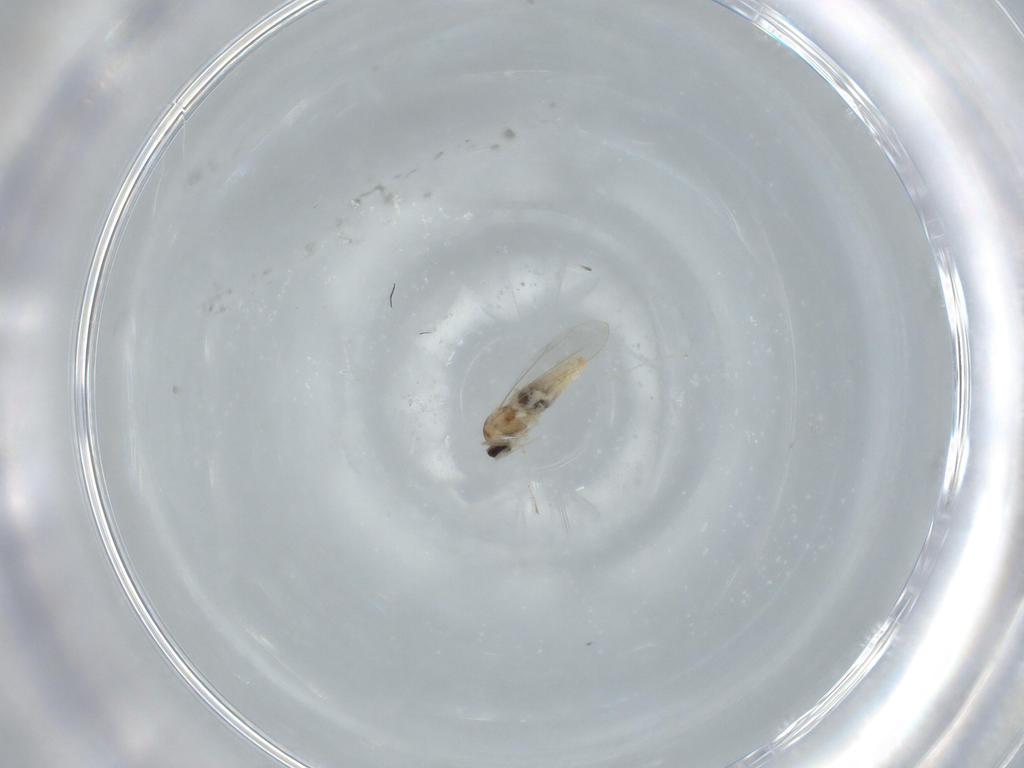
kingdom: Animalia
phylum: Arthropoda
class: Insecta
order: Diptera
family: Cecidomyiidae
